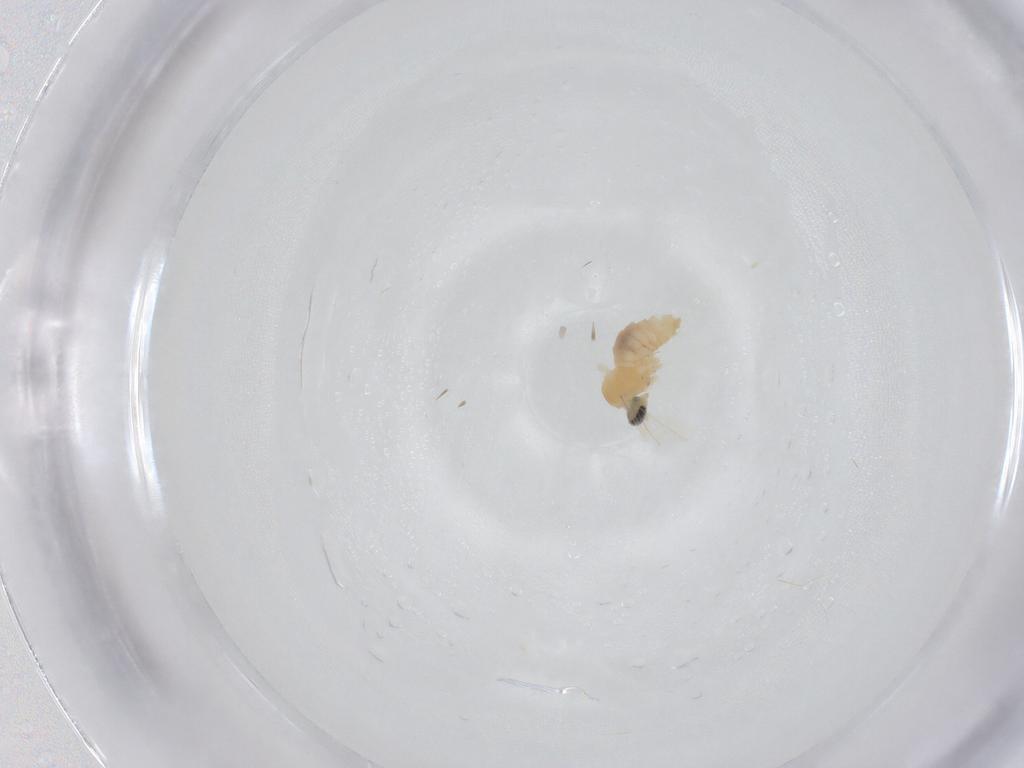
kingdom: Animalia
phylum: Arthropoda
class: Insecta
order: Diptera
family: Cecidomyiidae
